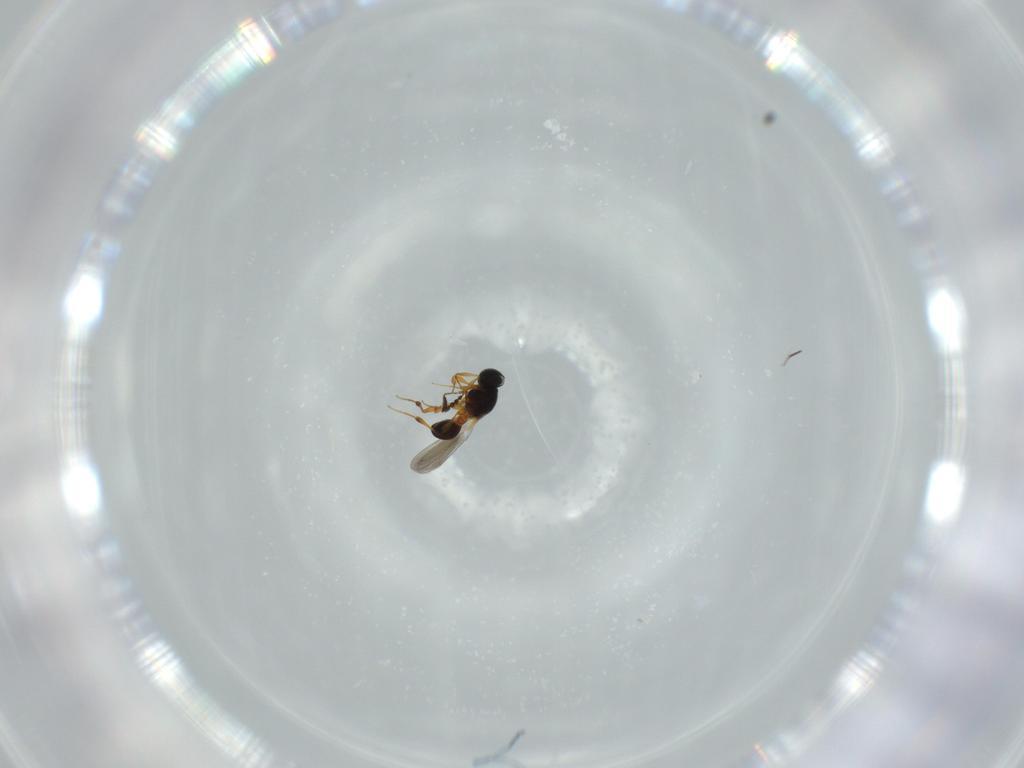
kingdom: Animalia
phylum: Arthropoda
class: Insecta
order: Hymenoptera
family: Platygastridae
